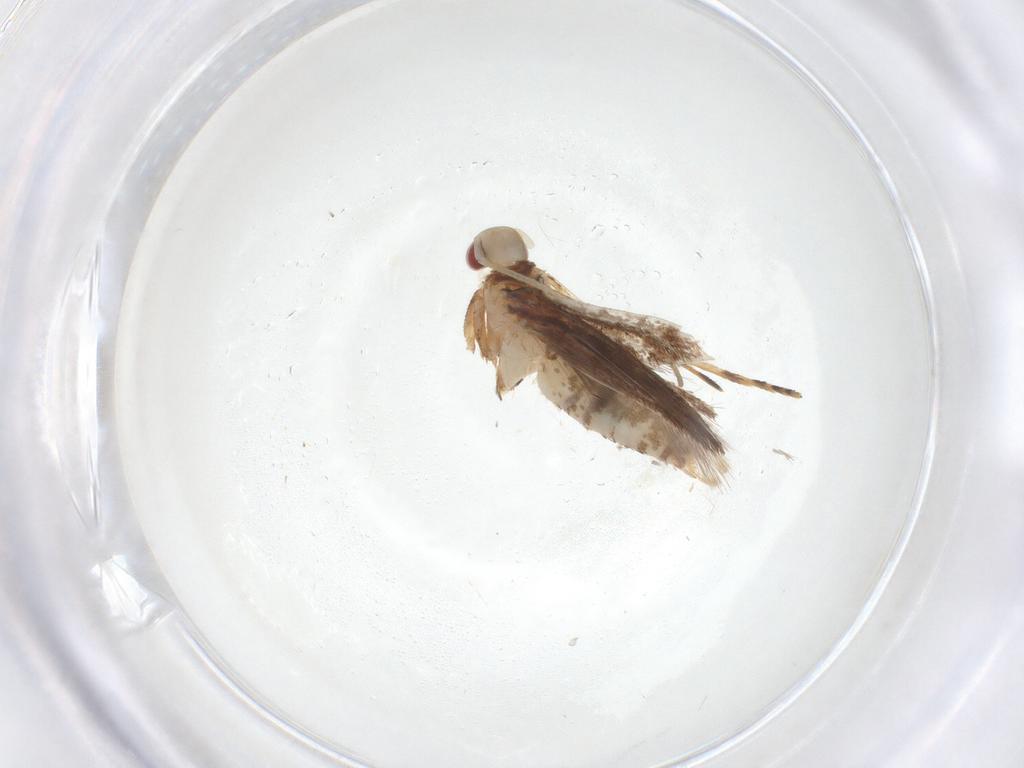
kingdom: Animalia
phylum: Arthropoda
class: Insecta
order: Lepidoptera
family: Cosmopterigidae
